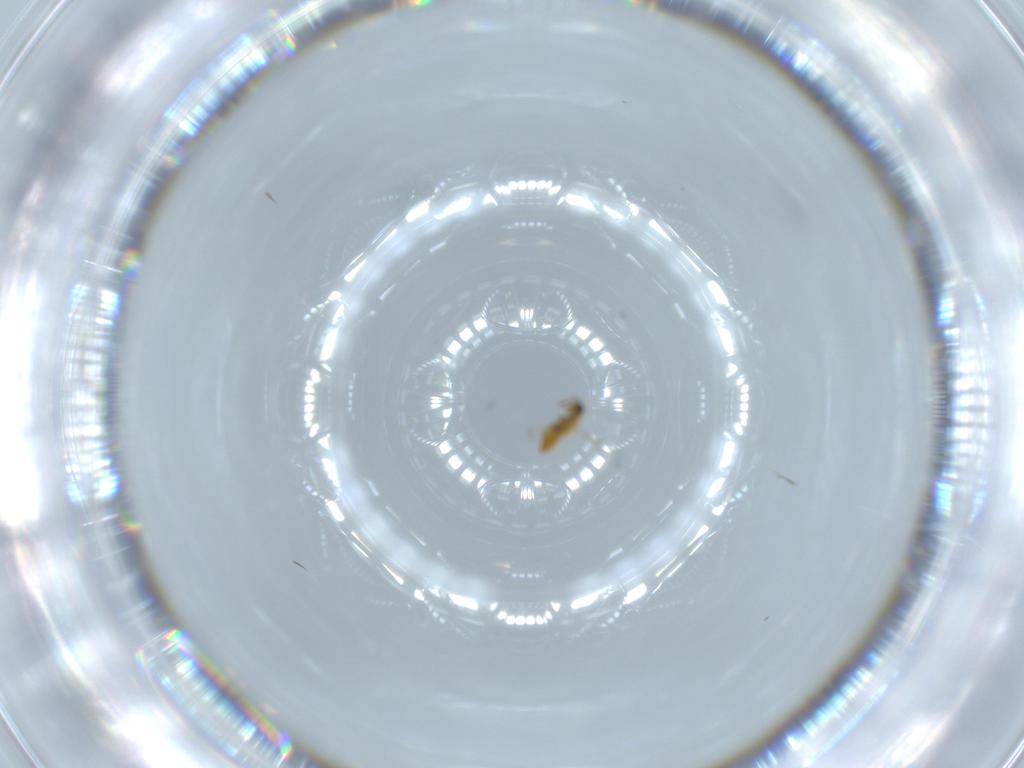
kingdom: Animalia
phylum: Arthropoda
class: Insecta
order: Hymenoptera
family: Trichogrammatidae
